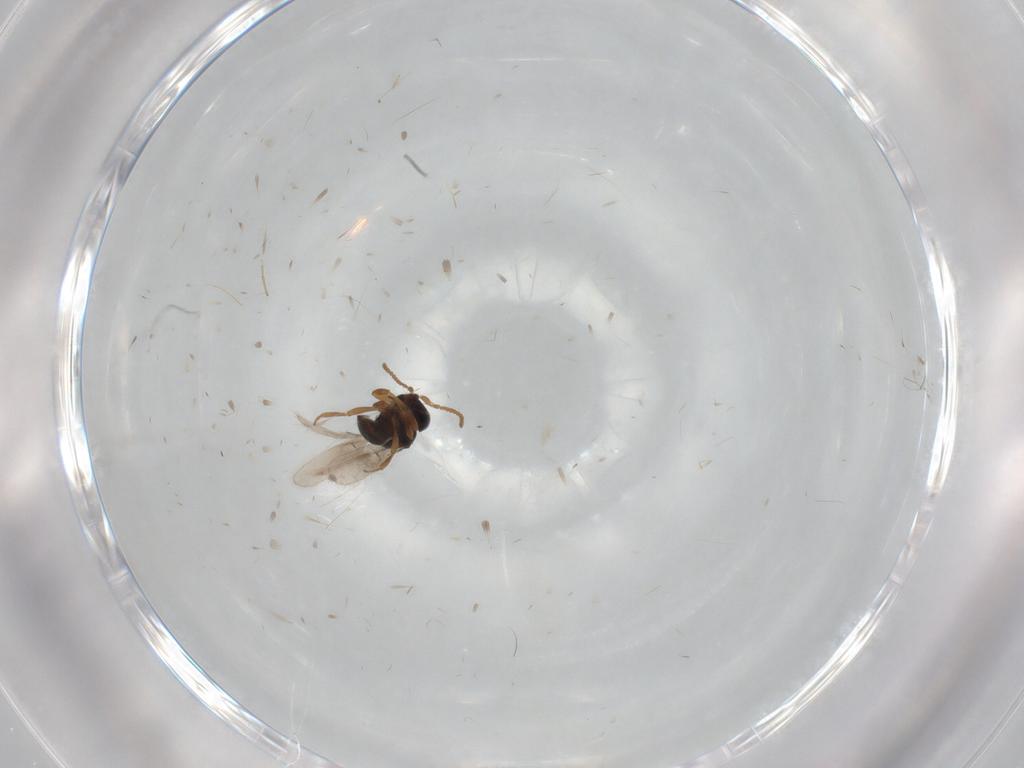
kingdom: Animalia
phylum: Arthropoda
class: Insecta
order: Hymenoptera
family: Scelionidae
